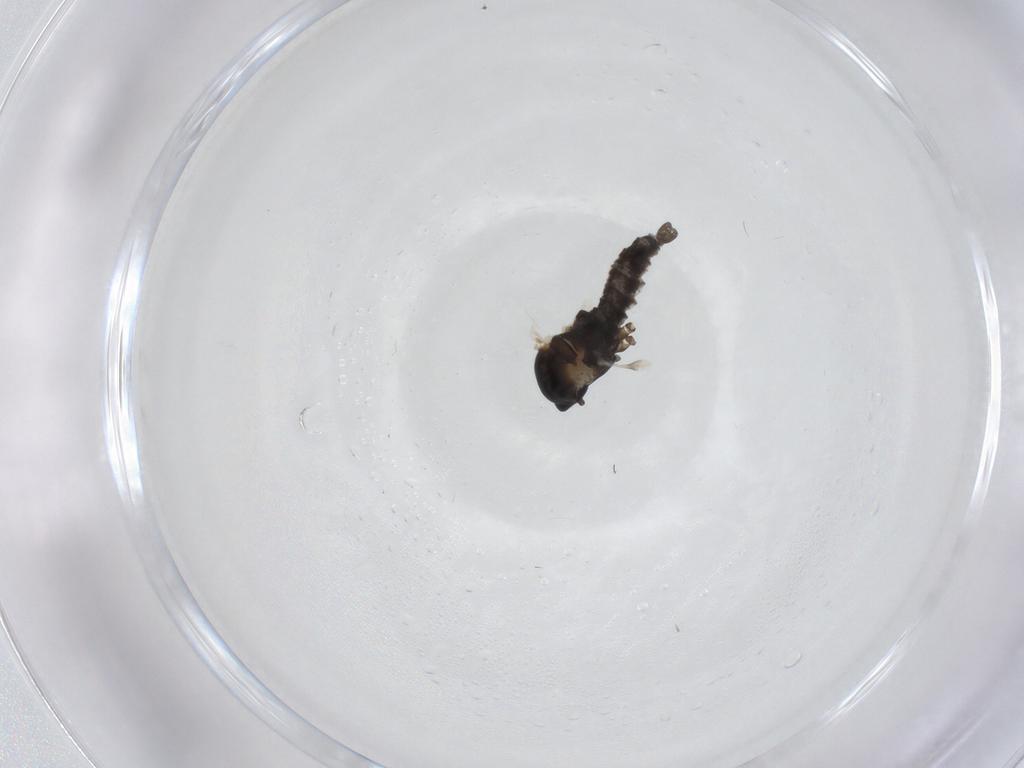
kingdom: Animalia
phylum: Arthropoda
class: Insecta
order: Diptera
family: Cecidomyiidae
